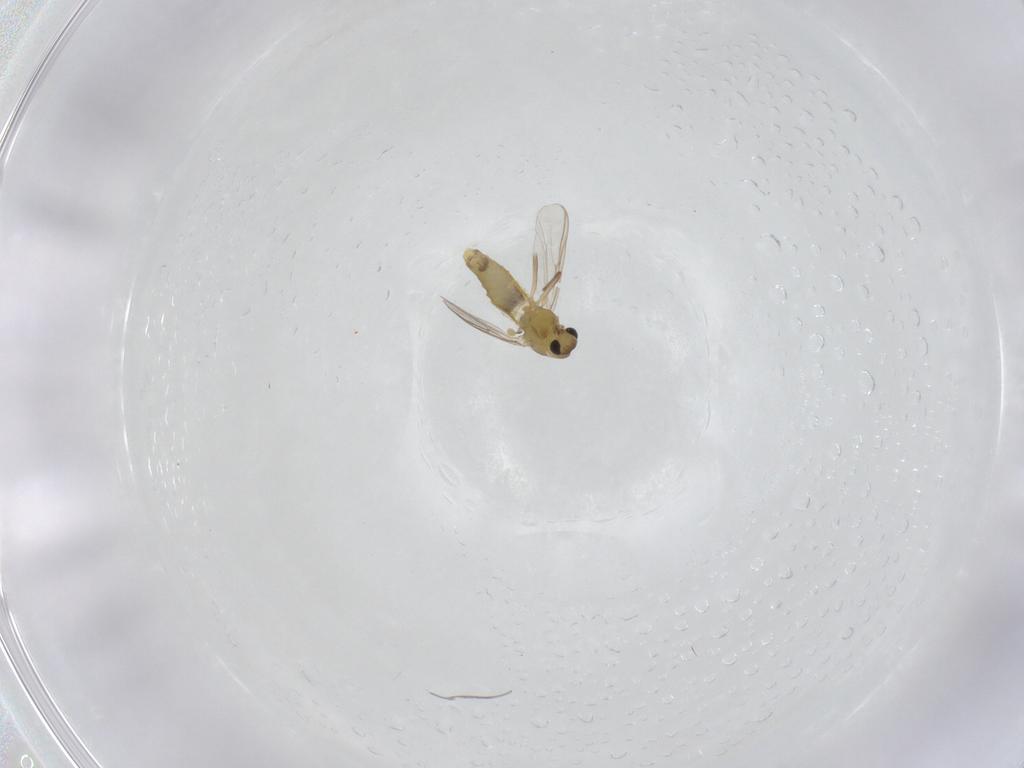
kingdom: Animalia
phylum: Arthropoda
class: Insecta
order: Diptera
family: Chironomidae
